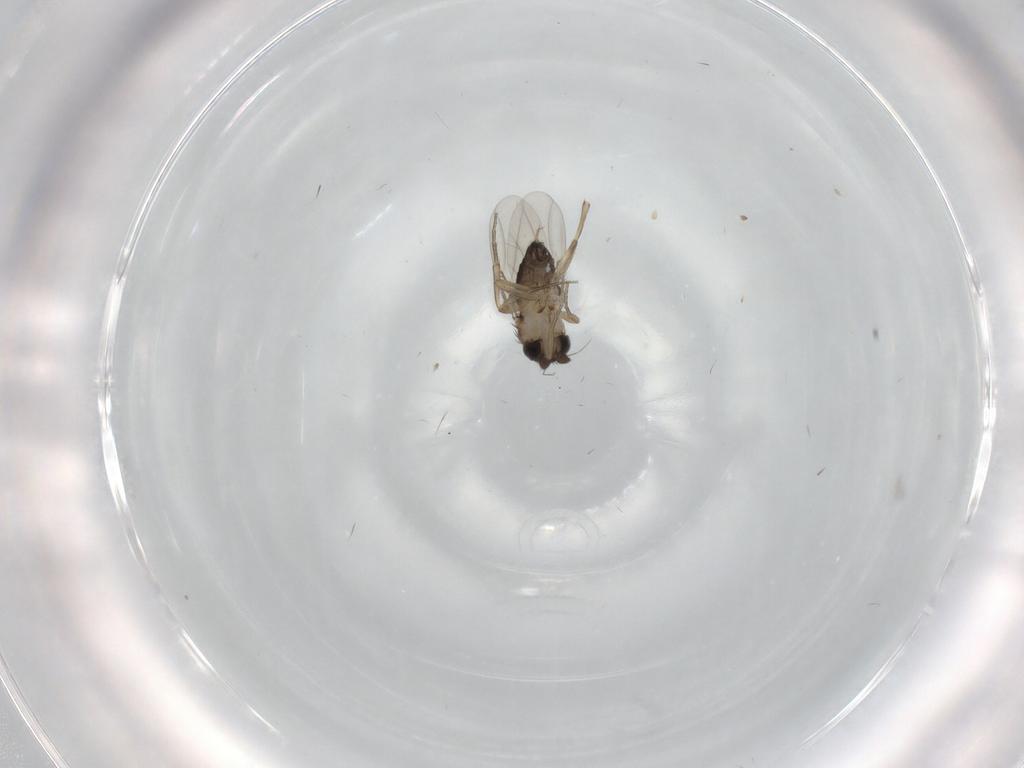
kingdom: Animalia
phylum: Arthropoda
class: Insecta
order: Diptera
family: Phoridae
